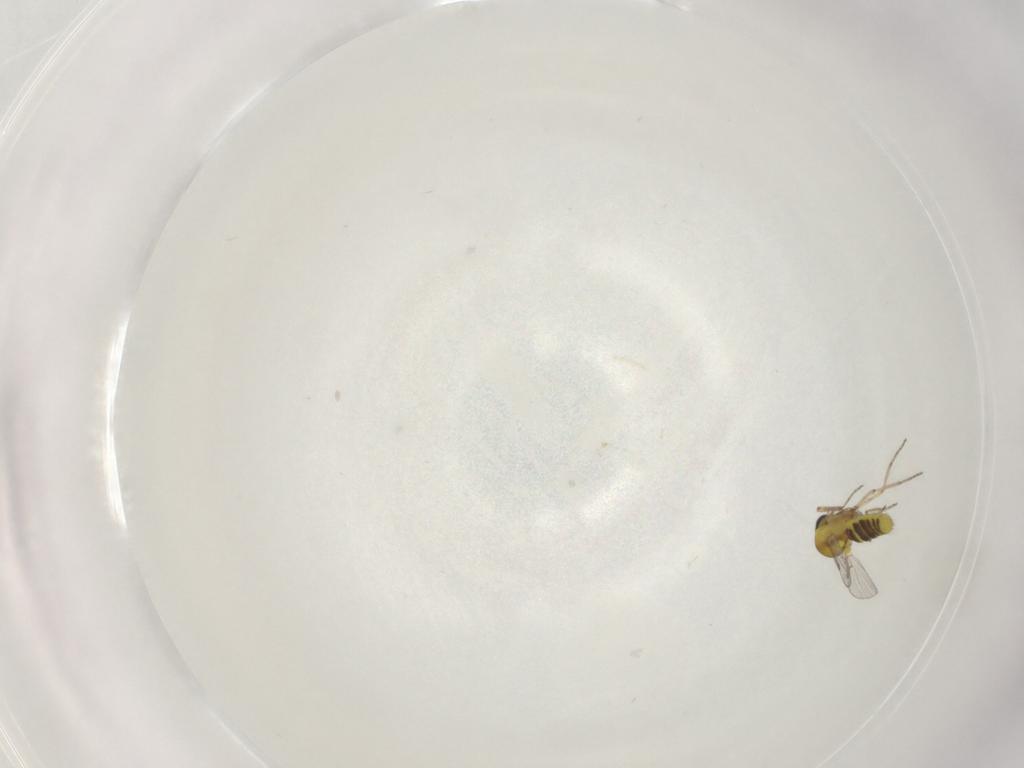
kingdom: Animalia
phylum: Arthropoda
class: Insecta
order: Diptera
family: Ceratopogonidae
